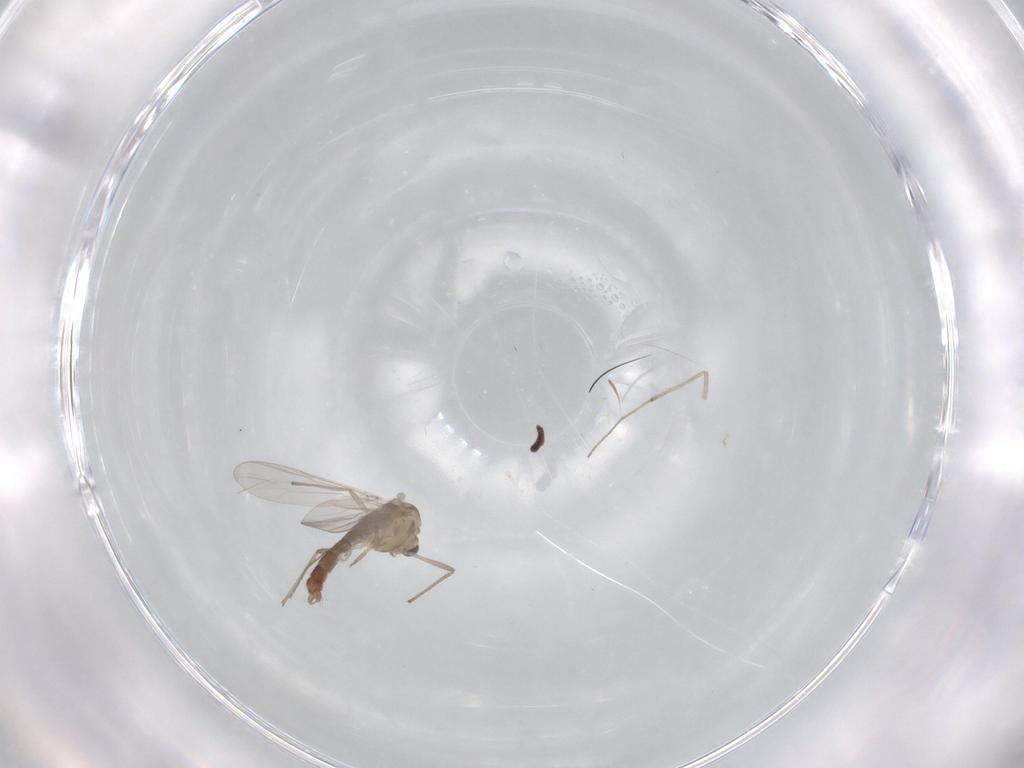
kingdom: Animalia
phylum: Arthropoda
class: Insecta
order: Diptera
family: Chironomidae
